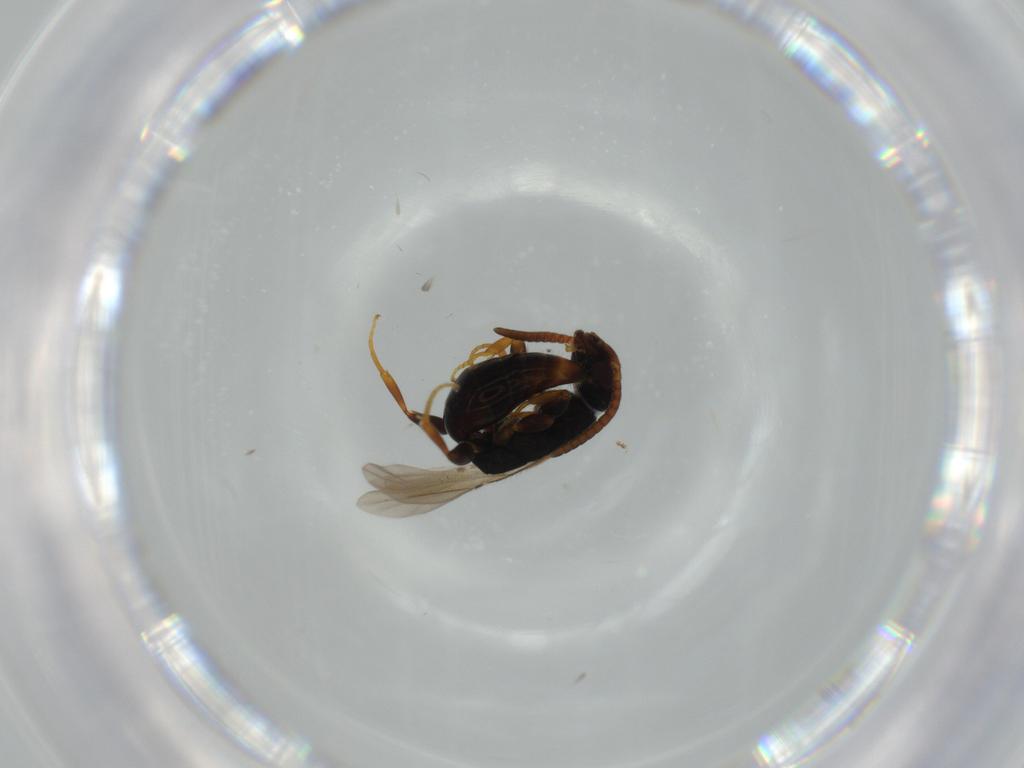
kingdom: Animalia
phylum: Arthropoda
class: Insecta
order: Hymenoptera
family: Bethylidae
